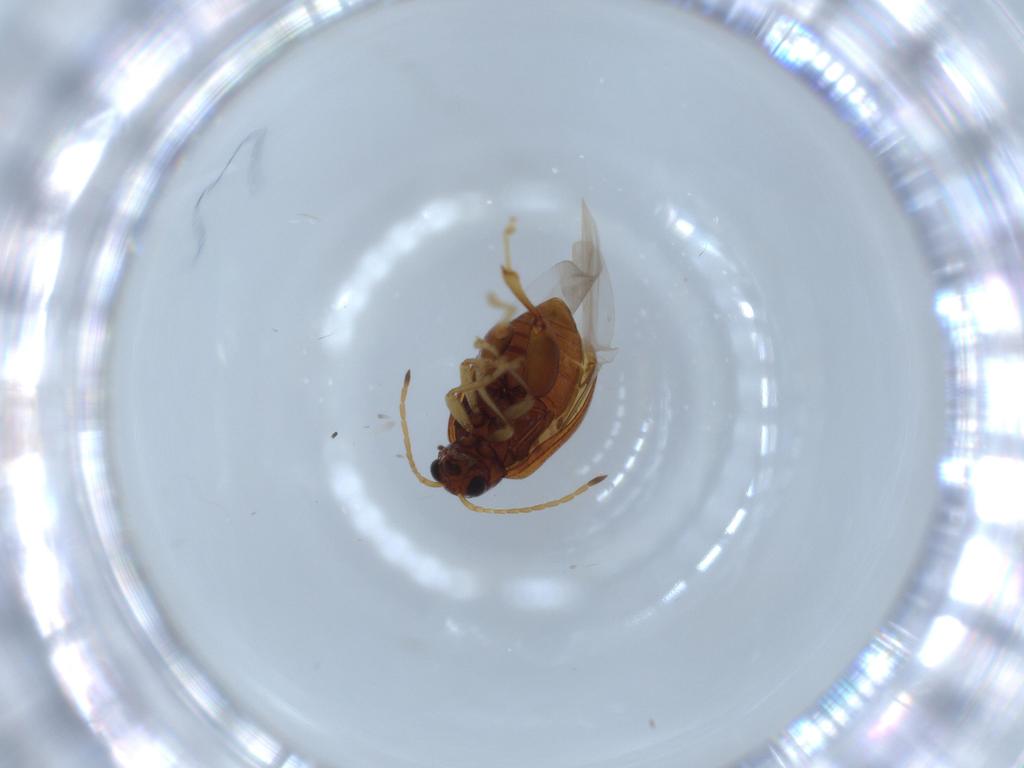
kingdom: Animalia
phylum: Arthropoda
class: Insecta
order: Coleoptera
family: Chrysomelidae
